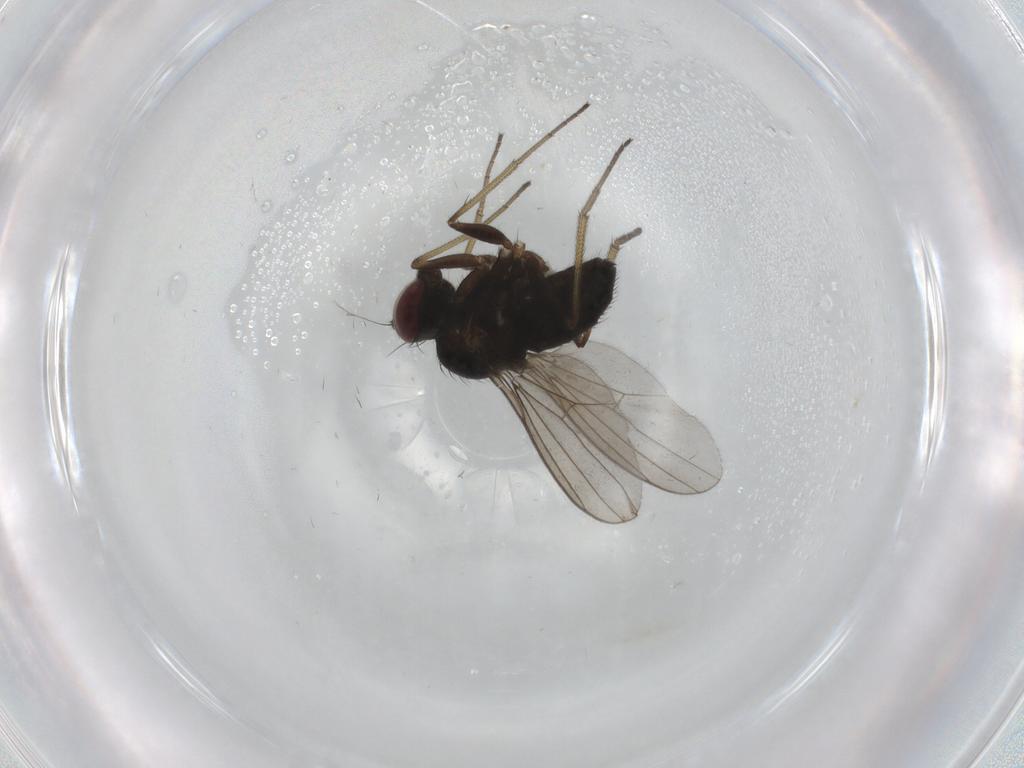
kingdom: Animalia
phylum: Arthropoda
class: Insecta
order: Diptera
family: Dolichopodidae
